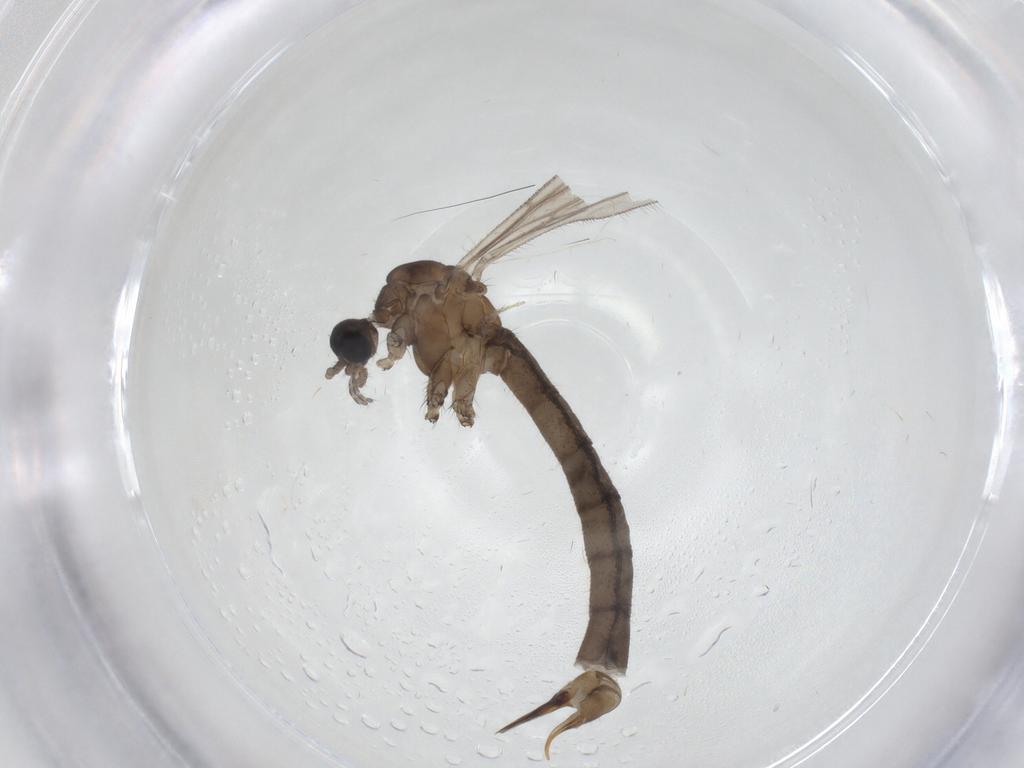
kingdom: Animalia
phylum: Arthropoda
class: Insecta
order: Diptera
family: Limoniidae
